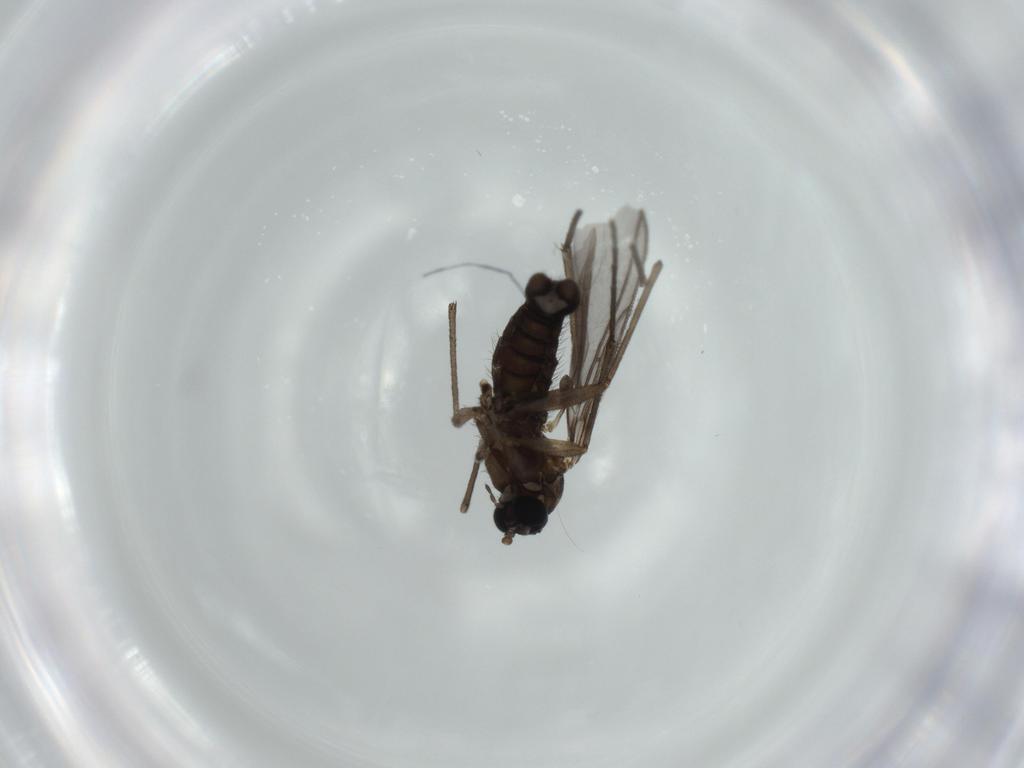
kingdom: Animalia
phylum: Arthropoda
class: Insecta
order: Diptera
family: Sciaridae
